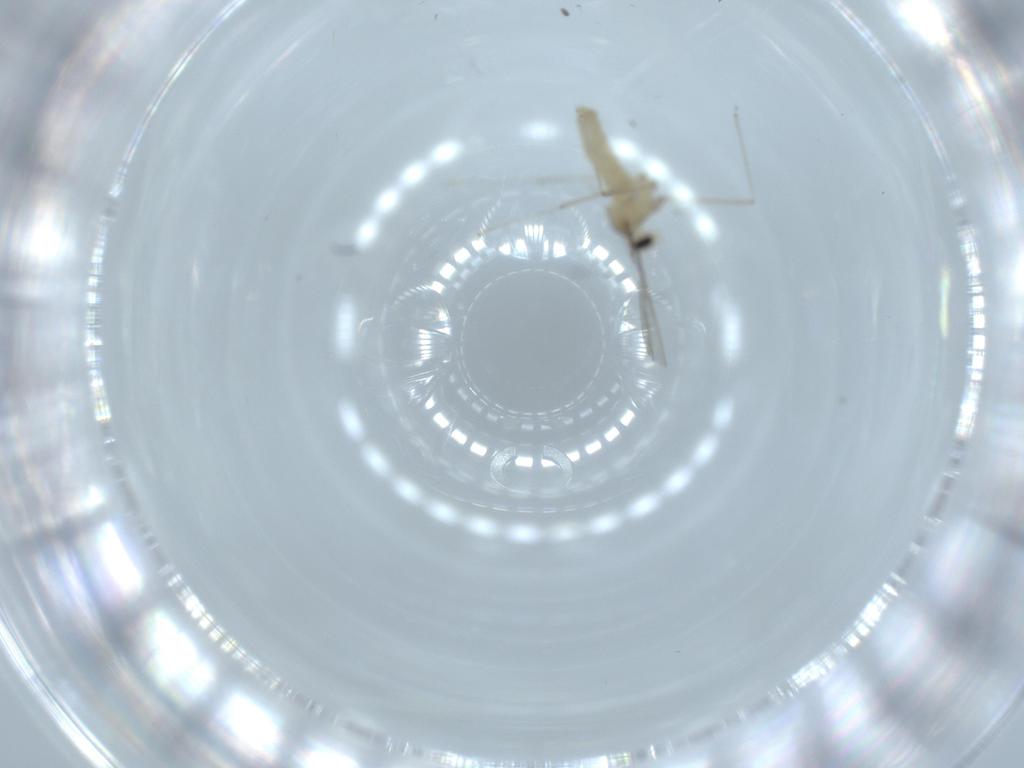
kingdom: Animalia
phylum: Arthropoda
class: Insecta
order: Diptera
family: Cecidomyiidae
